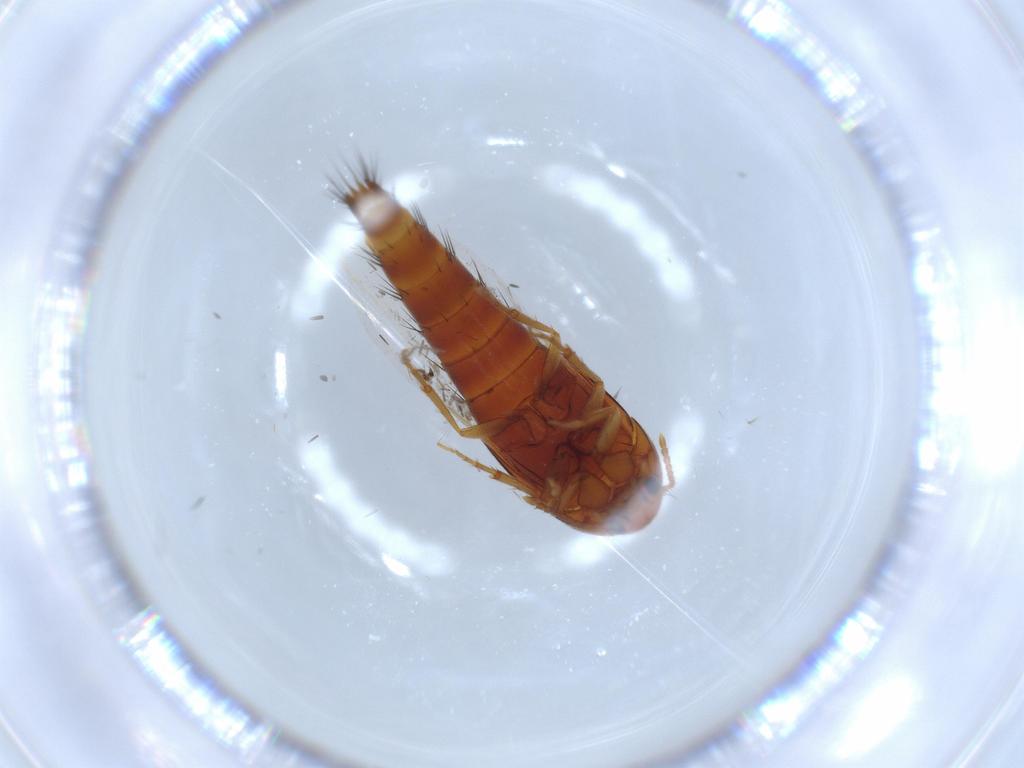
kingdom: Animalia
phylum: Arthropoda
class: Insecta
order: Coleoptera
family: Staphylinidae
